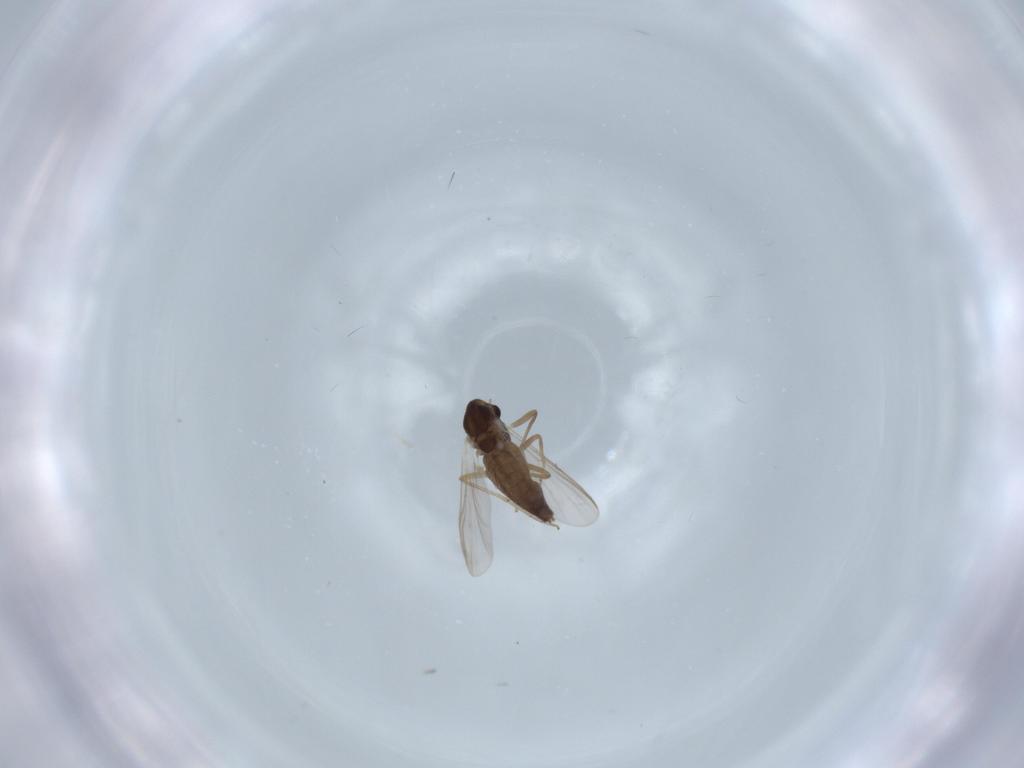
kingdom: Animalia
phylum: Arthropoda
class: Insecta
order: Diptera
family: Chironomidae
